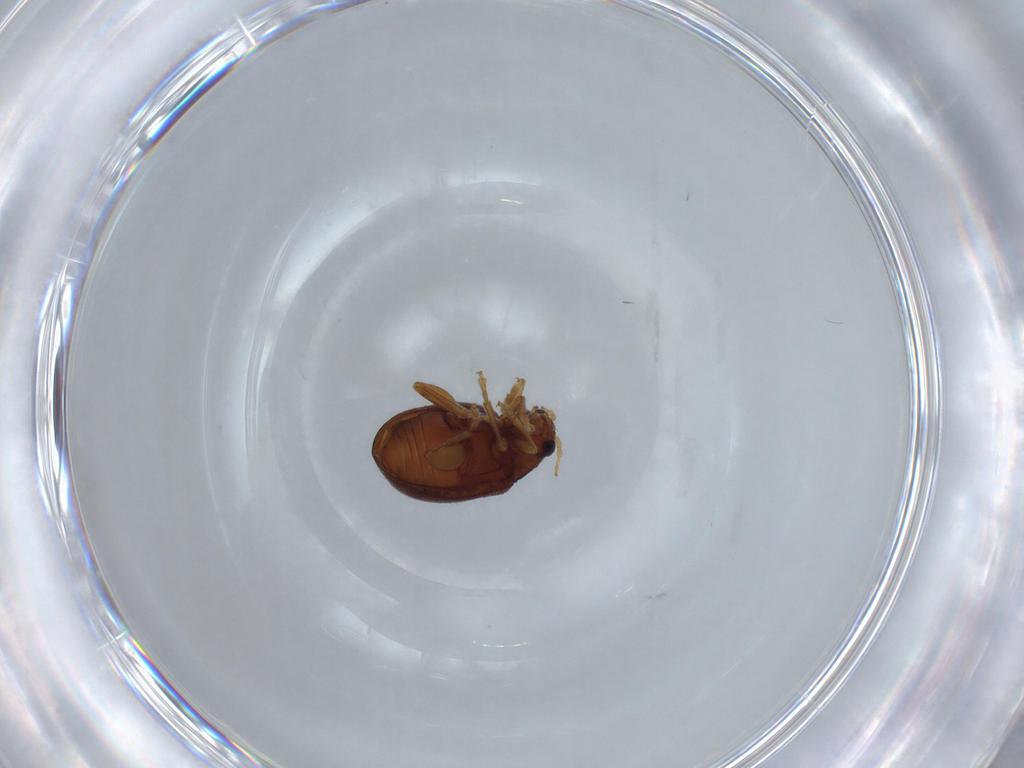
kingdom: Animalia
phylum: Arthropoda
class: Insecta
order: Coleoptera
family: Chrysomelidae
